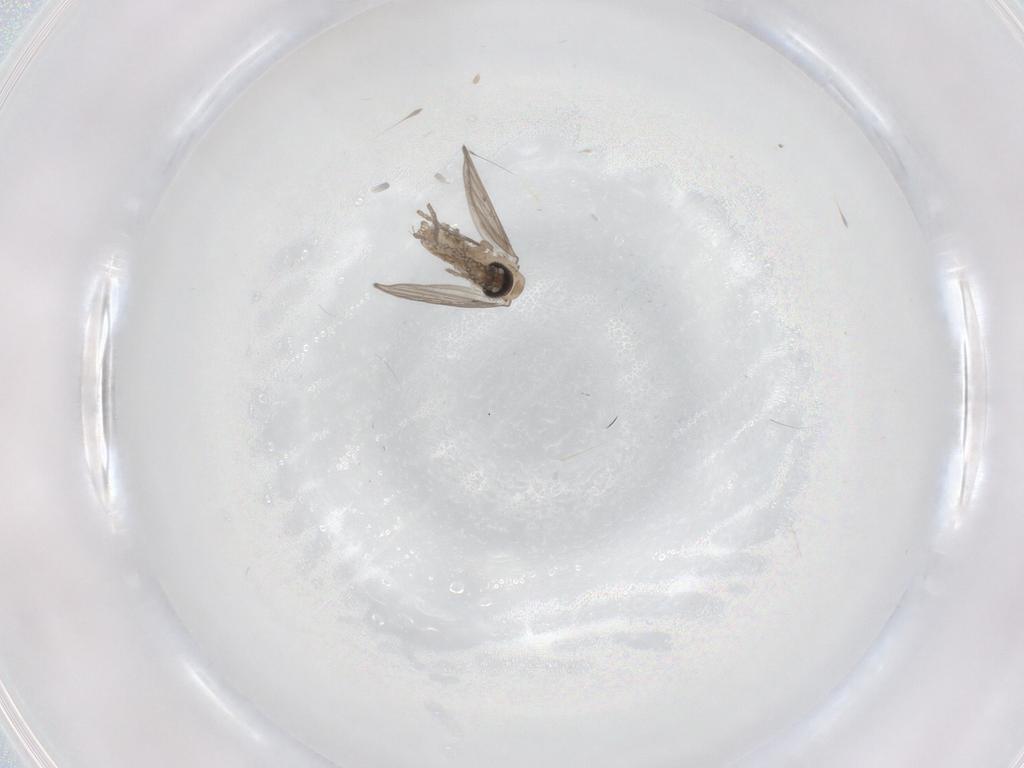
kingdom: Animalia
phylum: Arthropoda
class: Insecta
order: Diptera
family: Psychodidae
